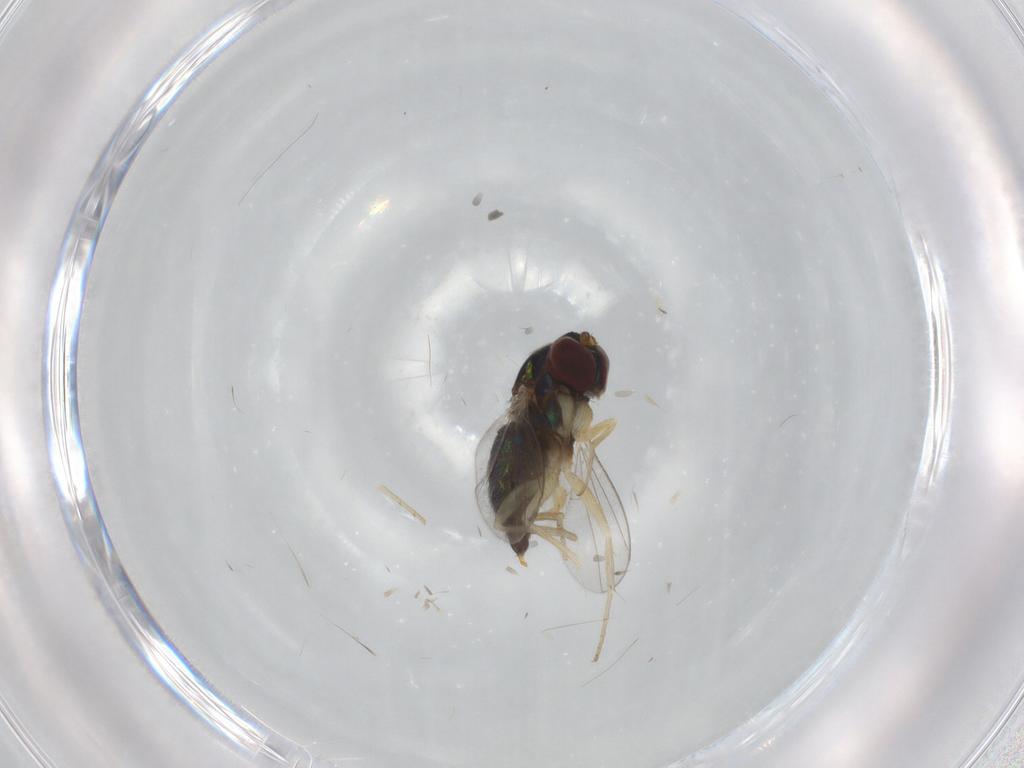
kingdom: Animalia
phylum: Arthropoda
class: Insecta
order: Diptera
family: Dolichopodidae
